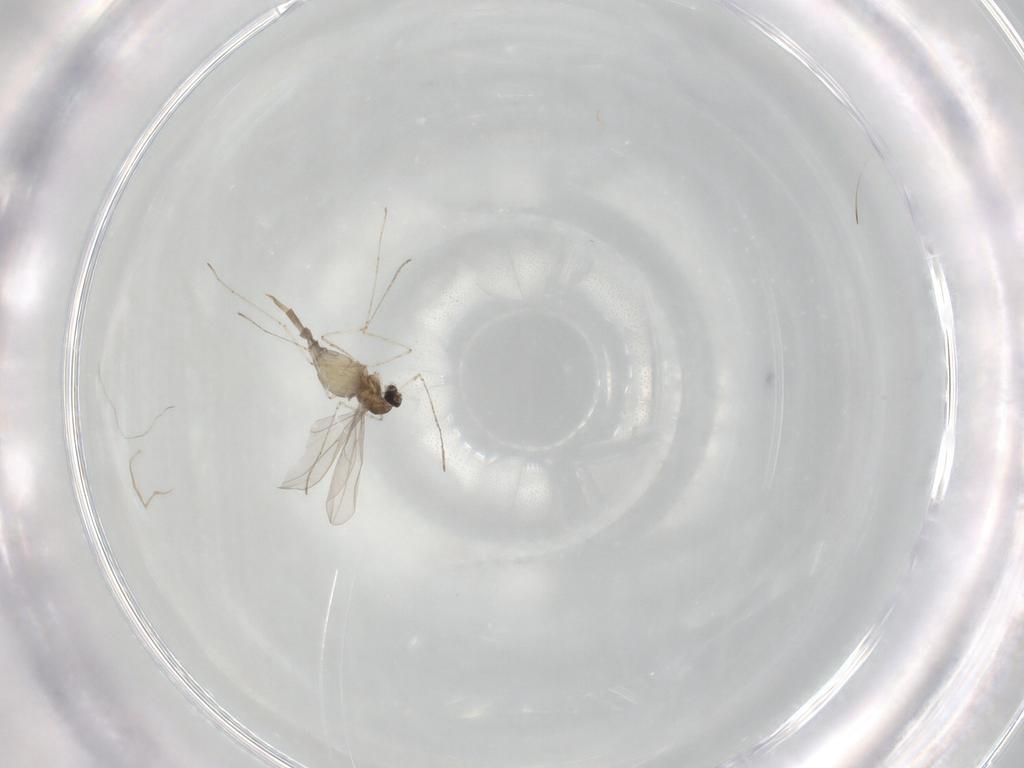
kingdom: Animalia
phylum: Arthropoda
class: Insecta
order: Diptera
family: Cecidomyiidae
